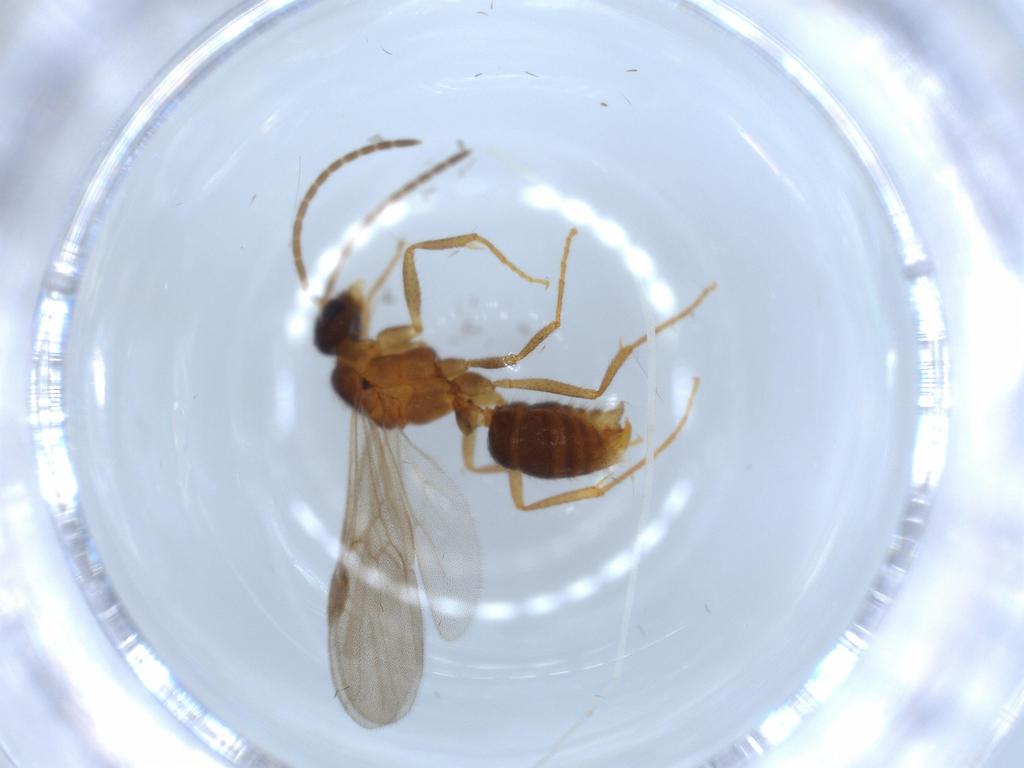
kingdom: Animalia
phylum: Arthropoda
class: Insecta
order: Hymenoptera
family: Formicidae
